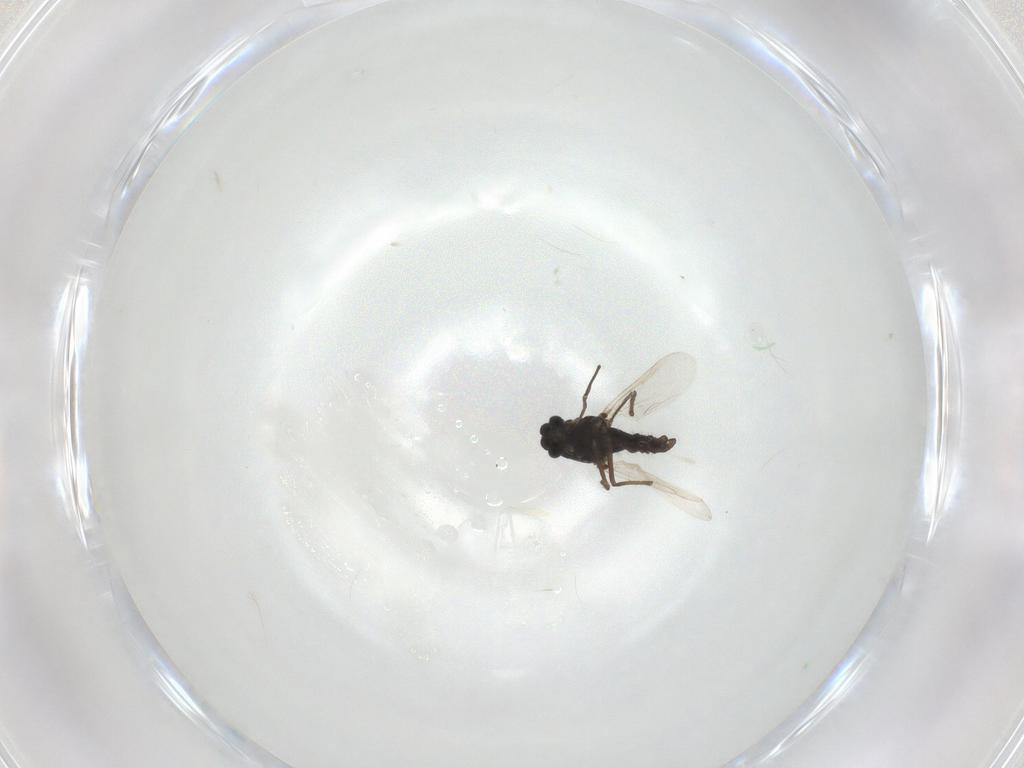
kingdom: Animalia
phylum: Arthropoda
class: Insecta
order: Diptera
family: Chironomidae
